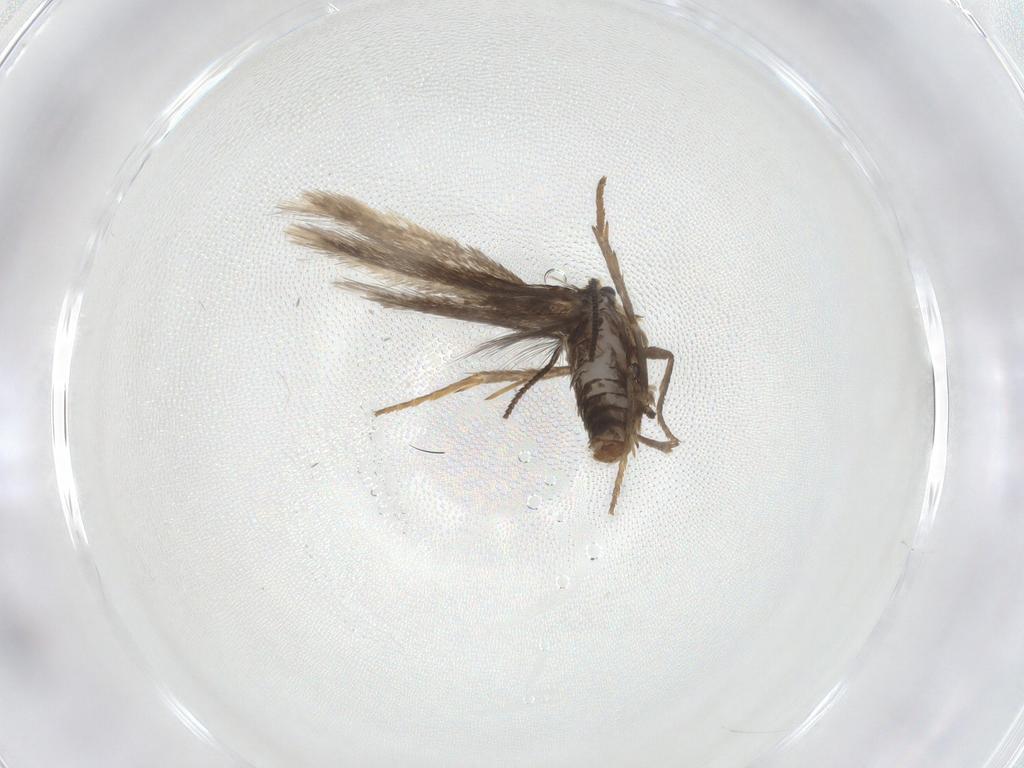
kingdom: Animalia
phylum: Arthropoda
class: Insecta
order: Lepidoptera
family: Nepticulidae
